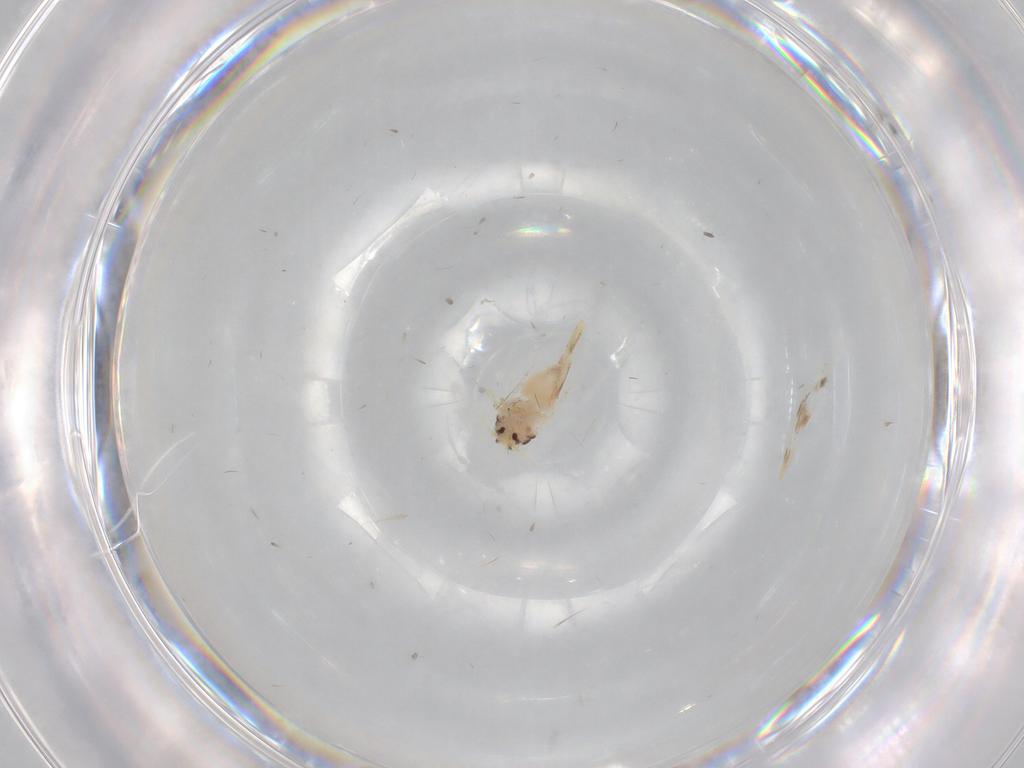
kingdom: Animalia
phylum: Arthropoda
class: Insecta
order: Hemiptera
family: Aleyrodidae
